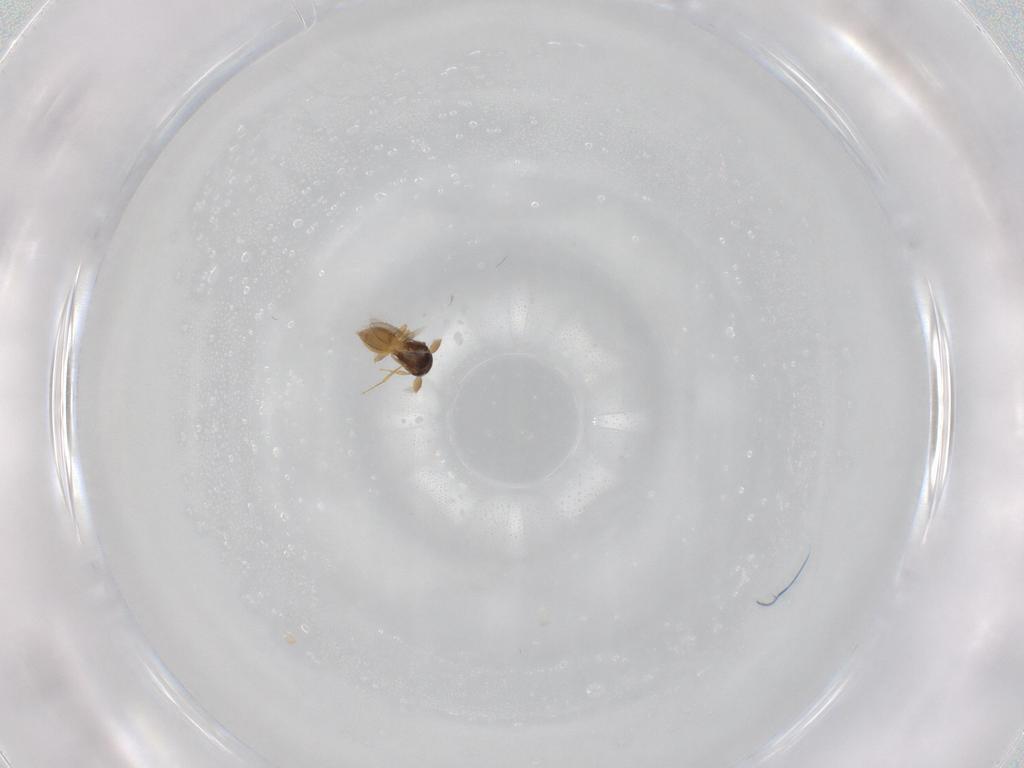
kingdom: Animalia
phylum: Arthropoda
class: Insecta
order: Hymenoptera
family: Scelionidae
